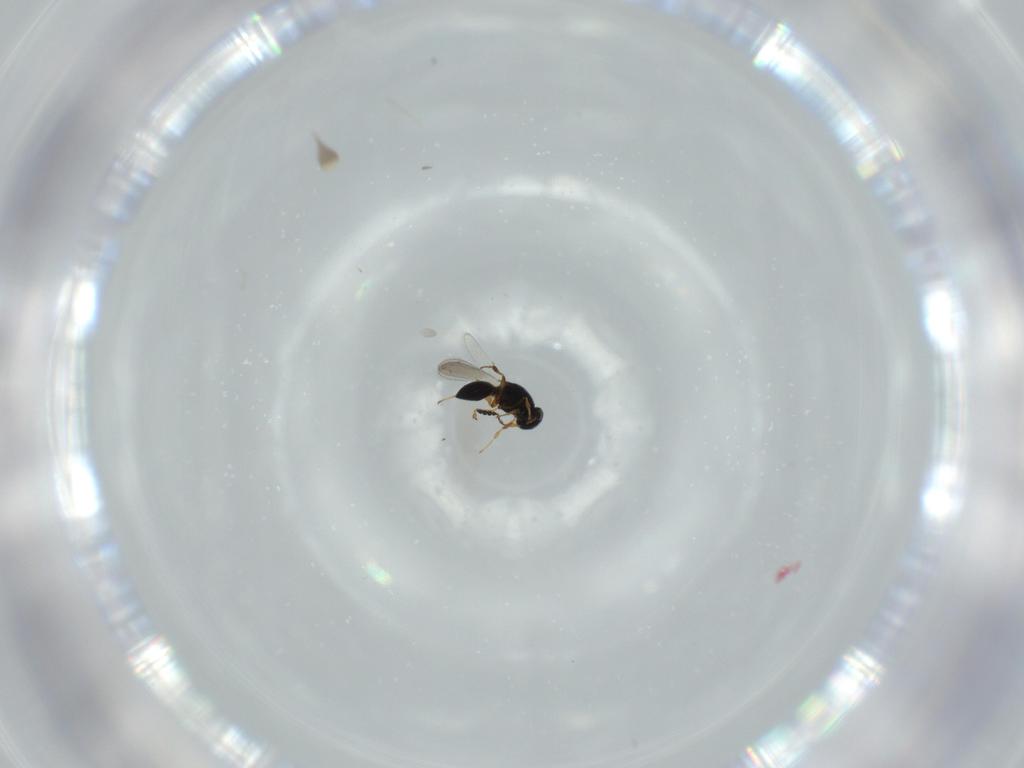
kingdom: Animalia
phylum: Arthropoda
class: Insecta
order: Hymenoptera
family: Platygastridae
